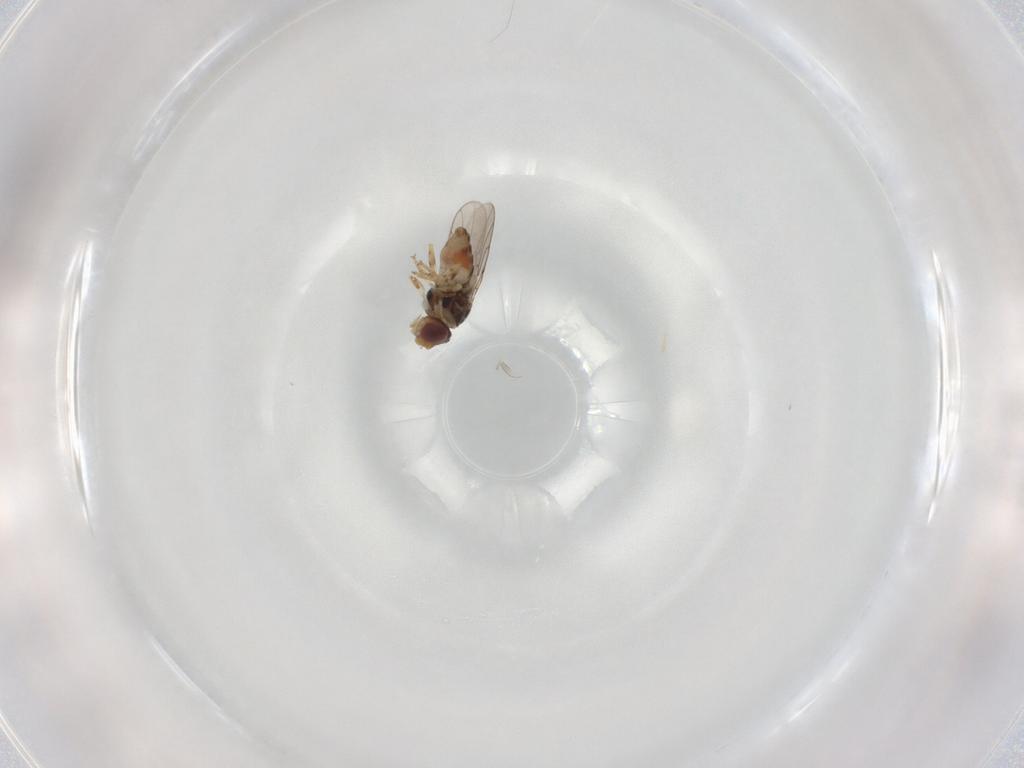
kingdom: Animalia
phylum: Arthropoda
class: Insecta
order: Diptera
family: Chloropidae
